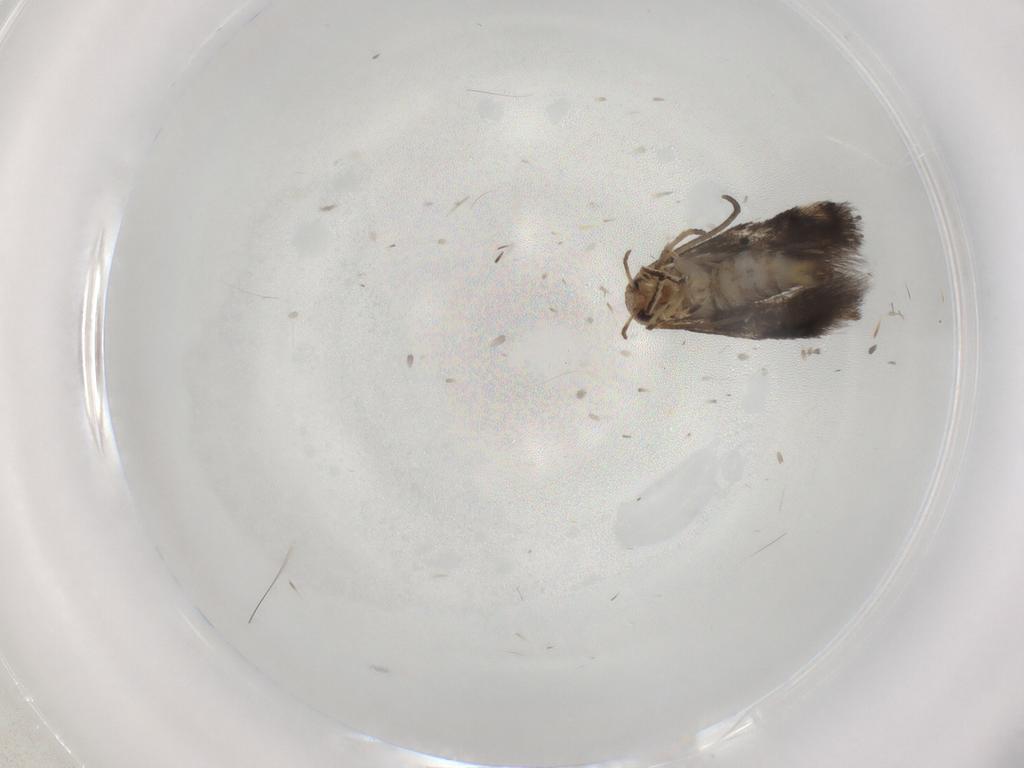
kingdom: Animalia
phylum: Arthropoda
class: Insecta
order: Lepidoptera
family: Elachistidae
